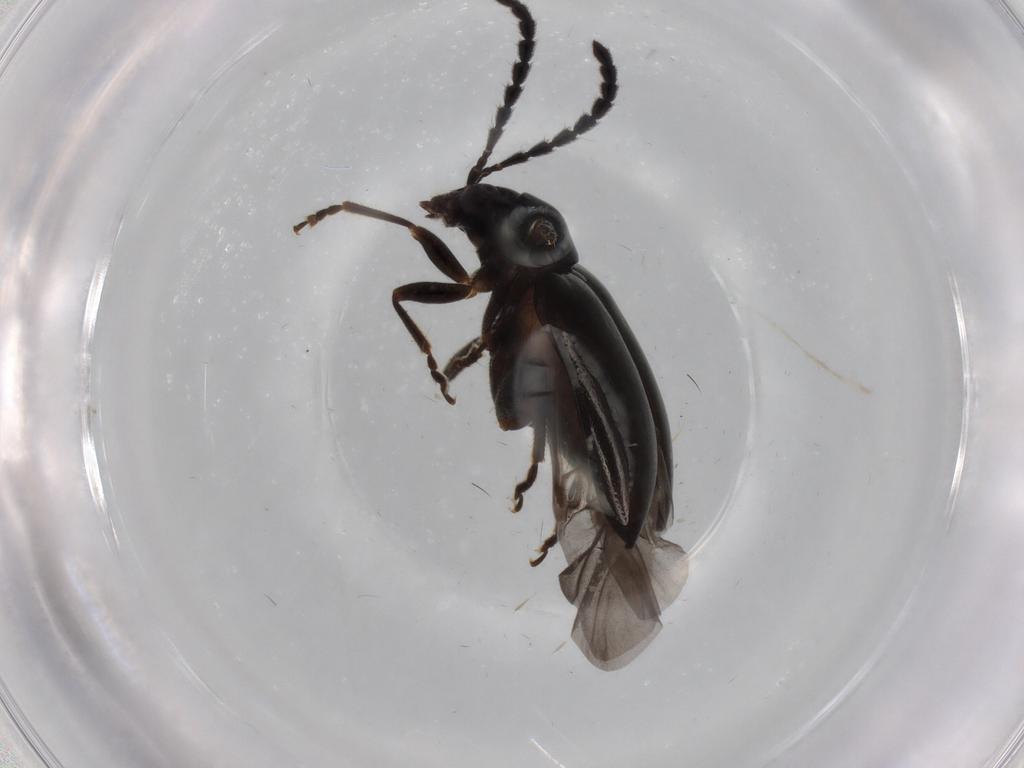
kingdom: Animalia
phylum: Arthropoda
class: Insecta
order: Coleoptera
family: Chrysomelidae
